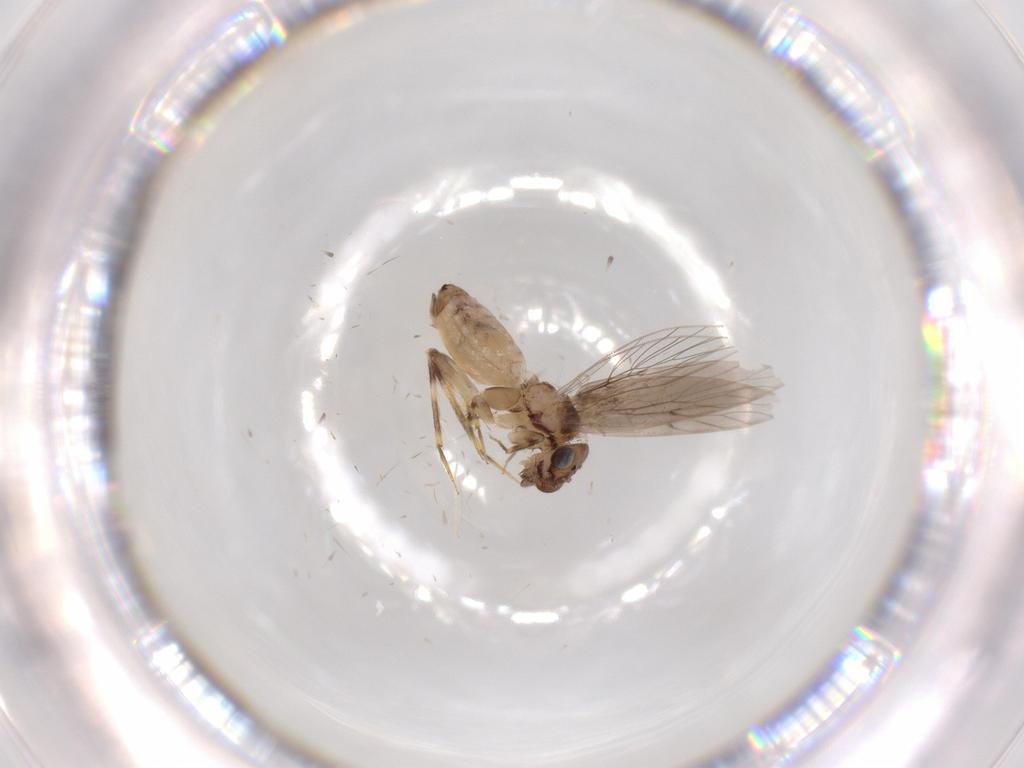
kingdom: Animalia
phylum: Arthropoda
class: Insecta
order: Psocodea
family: Lepidopsocidae
